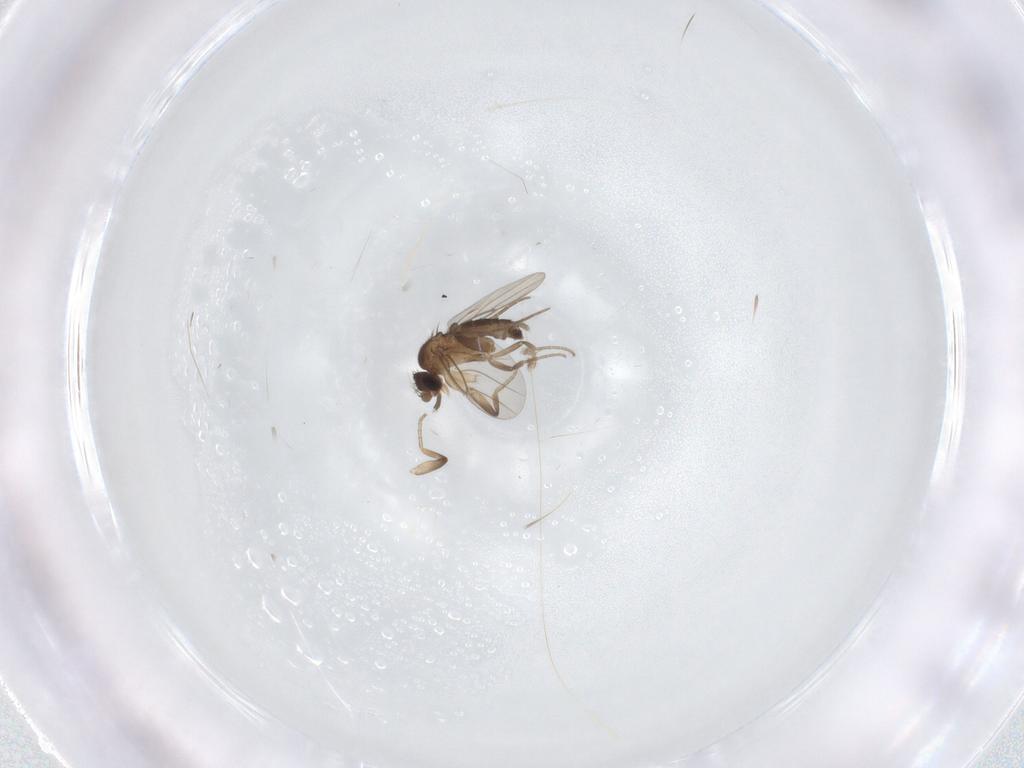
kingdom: Animalia
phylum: Arthropoda
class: Insecta
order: Diptera
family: Phoridae
